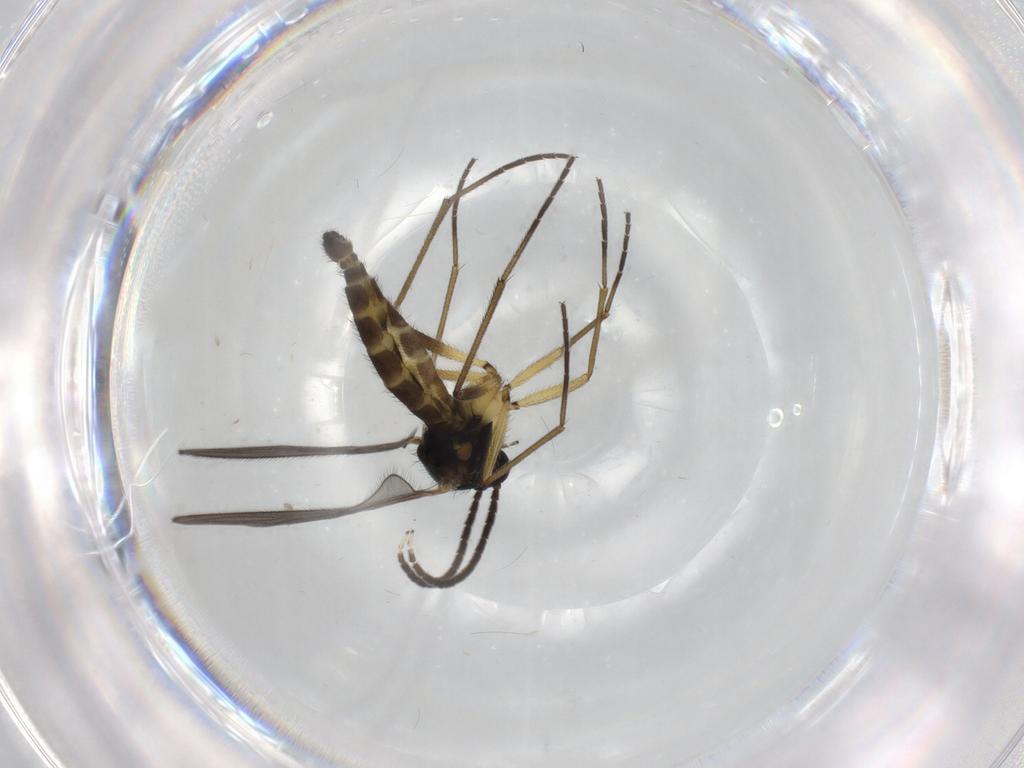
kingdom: Animalia
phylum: Arthropoda
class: Insecta
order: Diptera
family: Sciaridae
